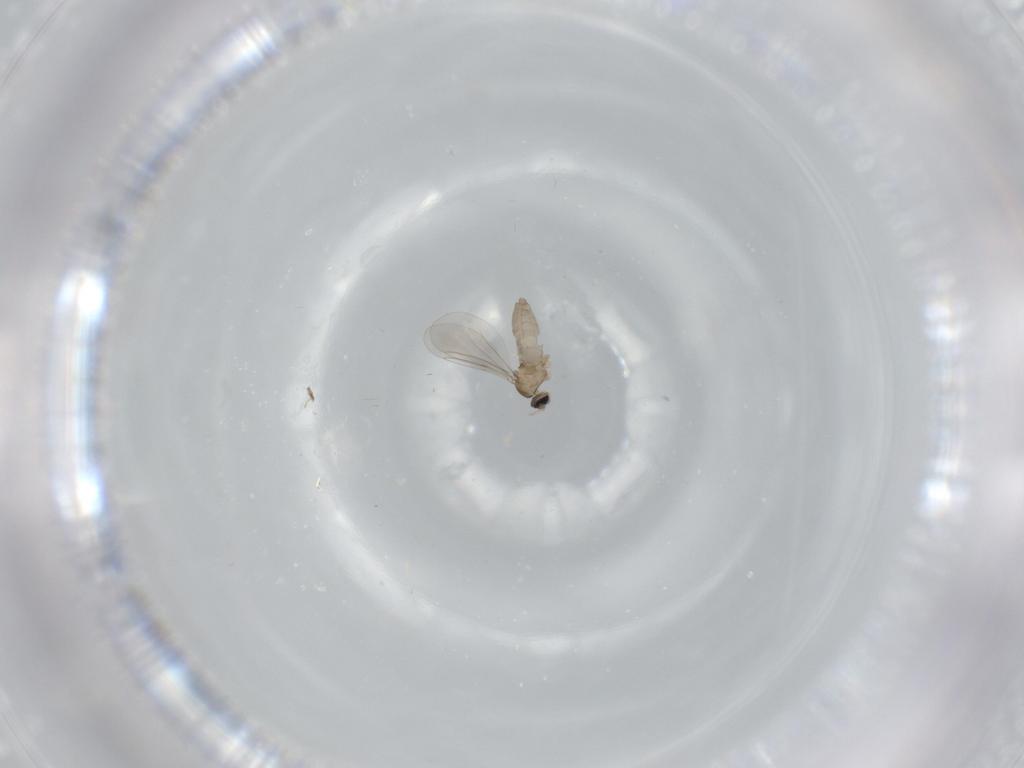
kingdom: Animalia
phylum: Arthropoda
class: Insecta
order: Diptera
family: Cecidomyiidae
